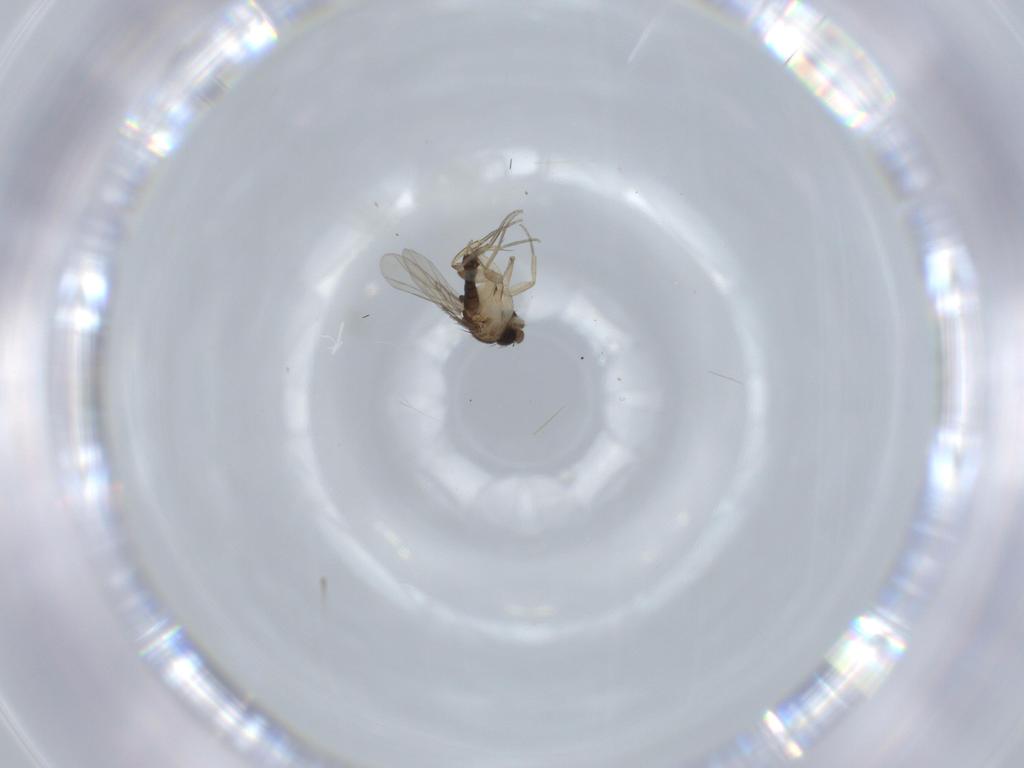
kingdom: Animalia
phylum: Arthropoda
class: Insecta
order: Diptera
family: Phoridae
